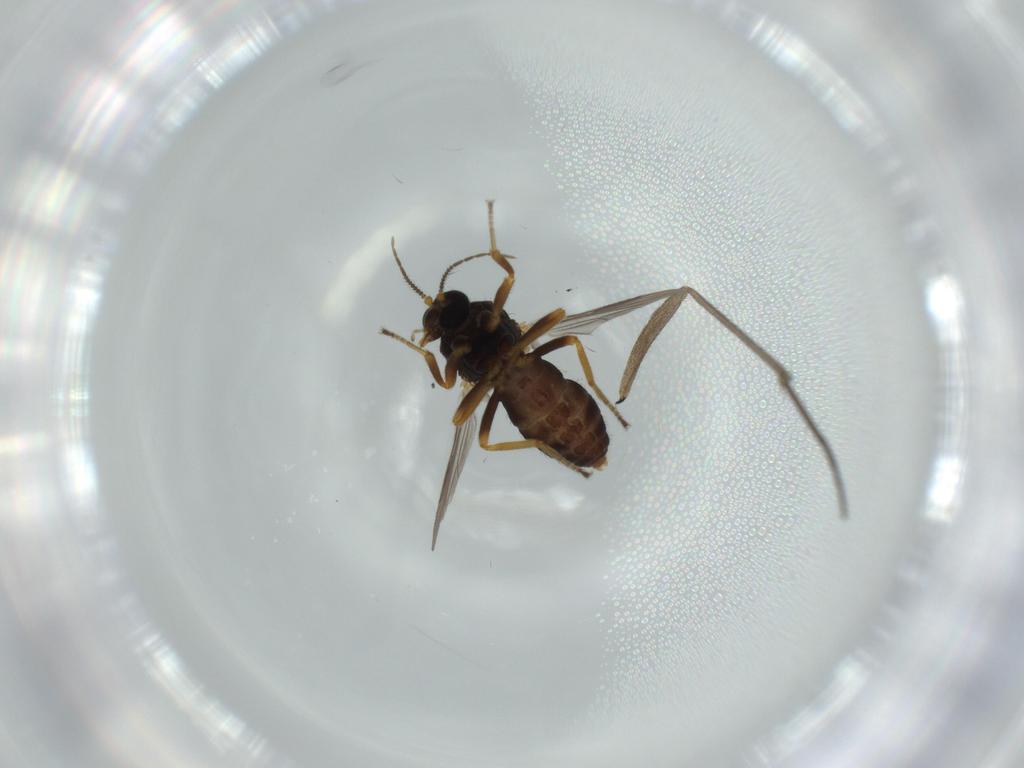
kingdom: Animalia
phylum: Arthropoda
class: Insecta
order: Diptera
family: Ceratopogonidae
